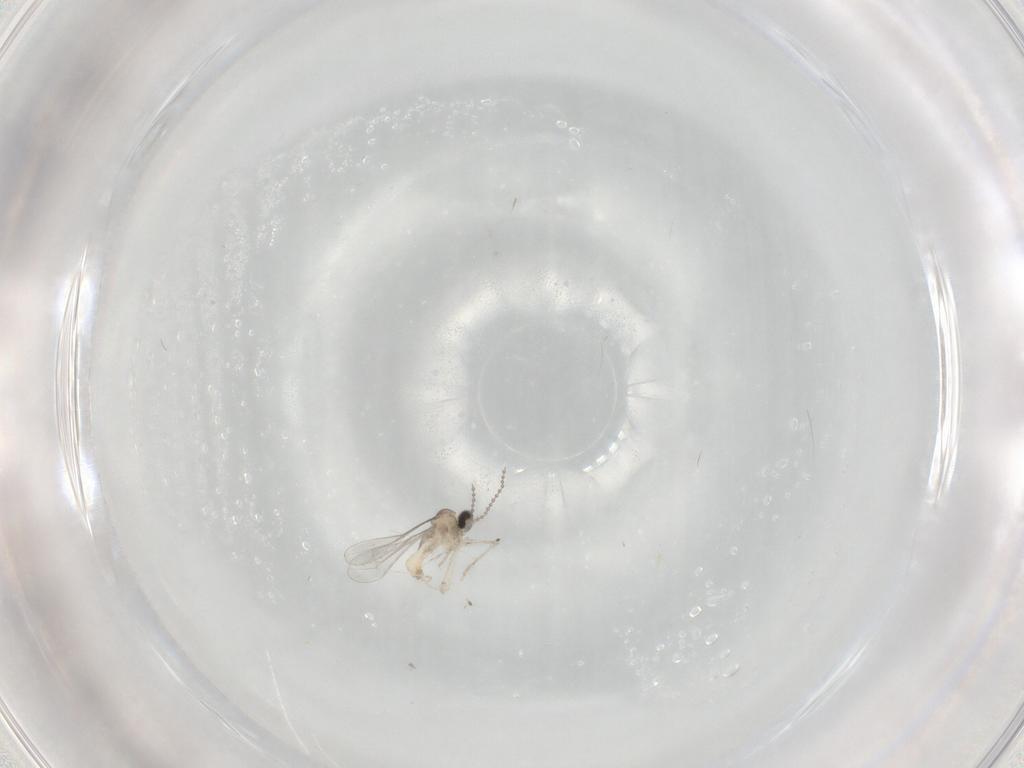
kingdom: Animalia
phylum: Arthropoda
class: Insecta
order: Diptera
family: Cecidomyiidae
